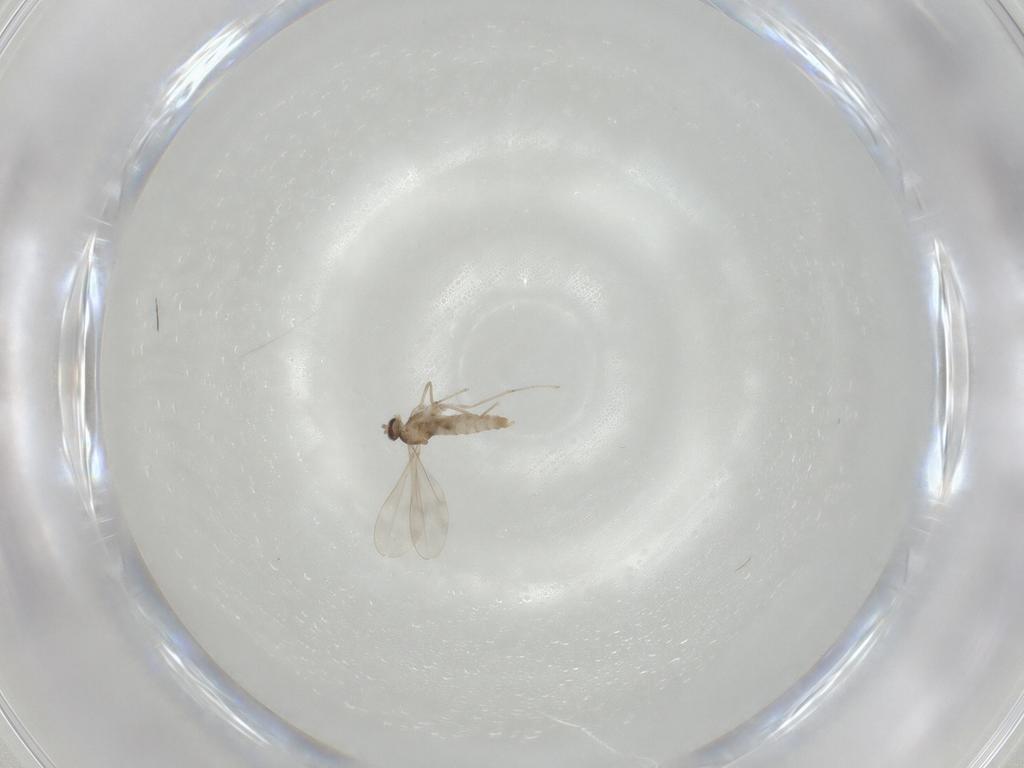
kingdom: Animalia
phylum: Arthropoda
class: Insecta
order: Diptera
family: Cecidomyiidae
